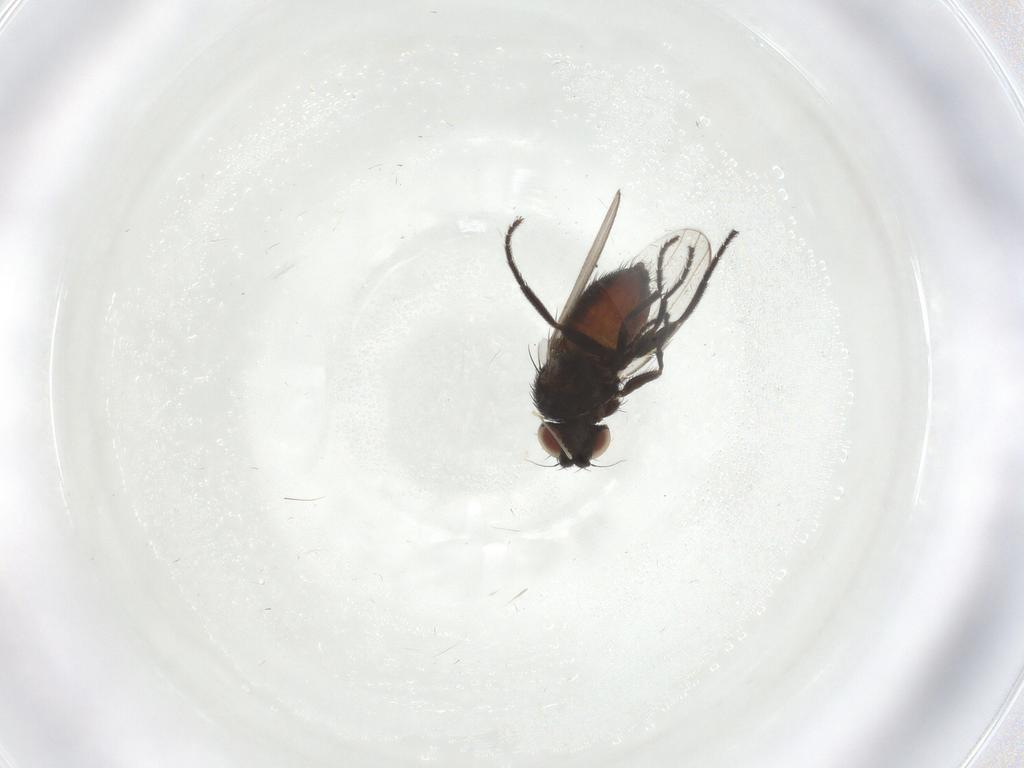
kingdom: Animalia
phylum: Arthropoda
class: Insecta
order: Diptera
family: Milichiidae
